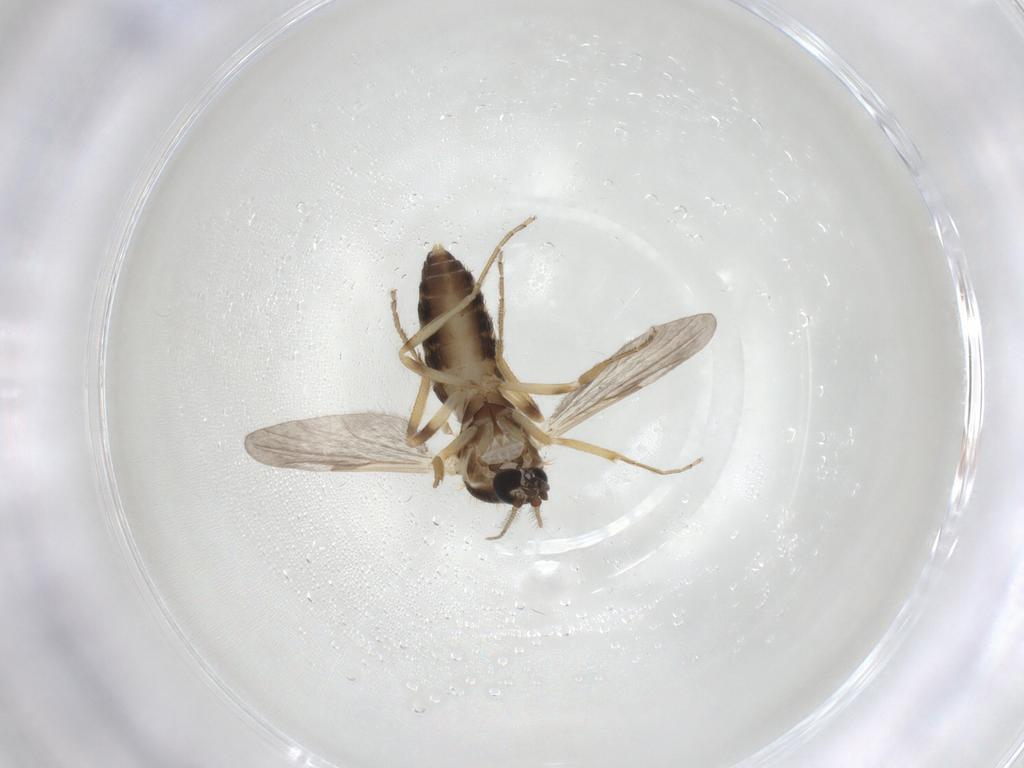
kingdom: Animalia
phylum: Arthropoda
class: Insecta
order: Diptera
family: Ceratopogonidae
